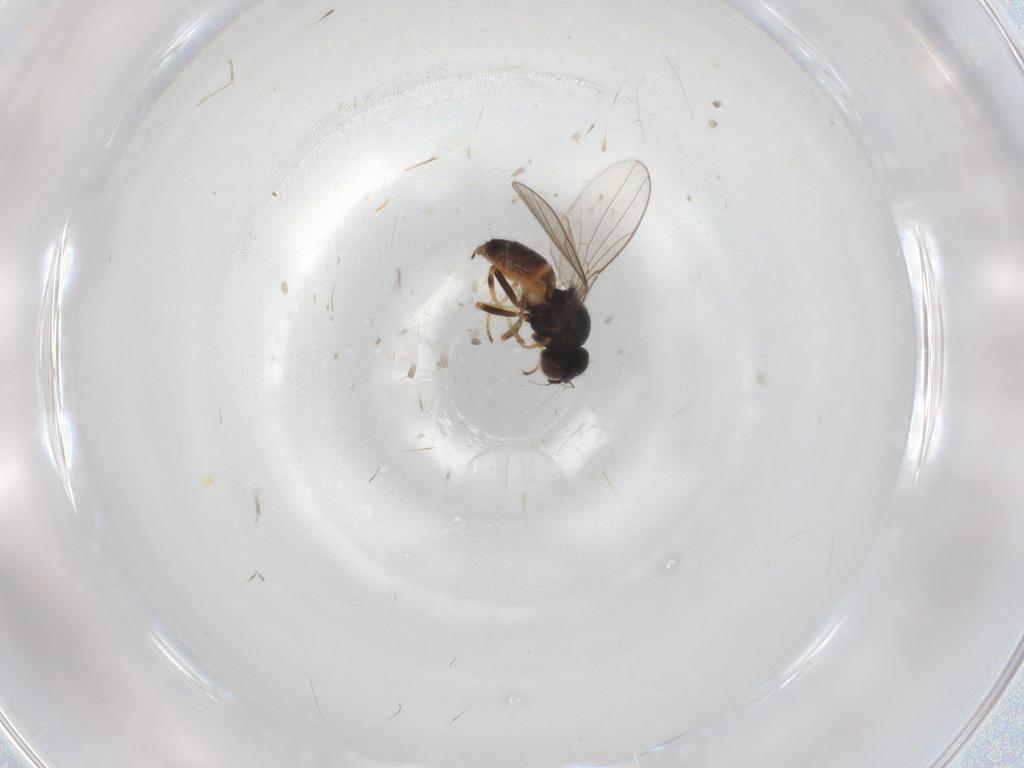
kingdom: Animalia
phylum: Arthropoda
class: Insecta
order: Diptera
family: Chloropidae
